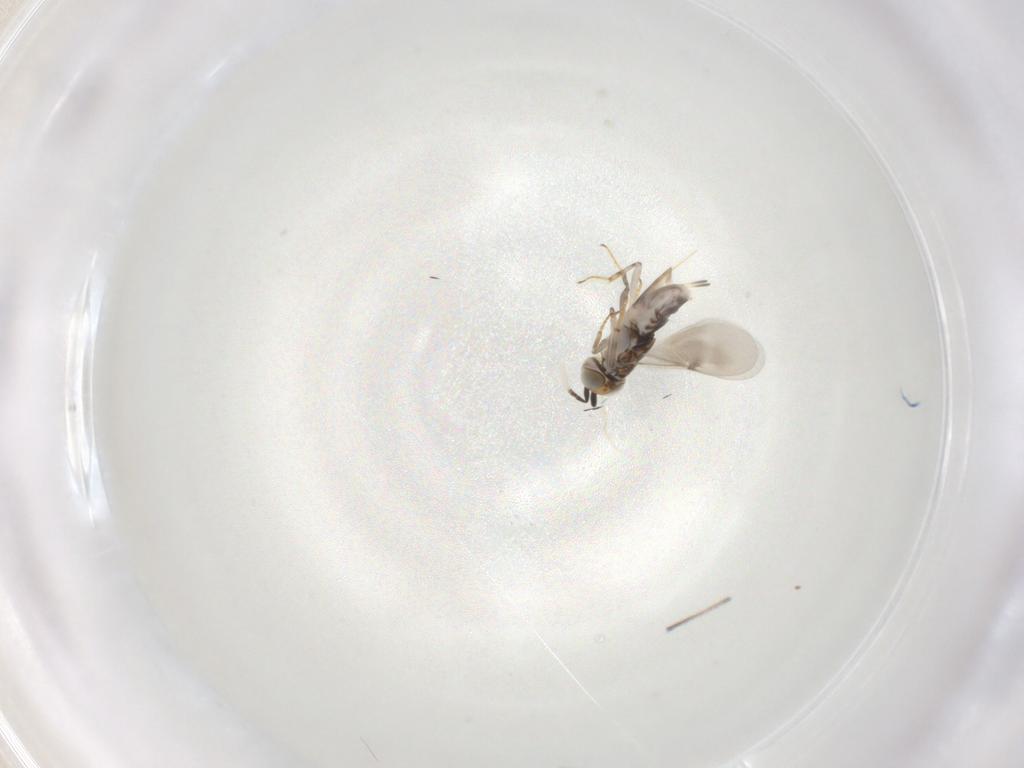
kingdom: Animalia
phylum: Arthropoda
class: Insecta
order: Hymenoptera
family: Encyrtidae
